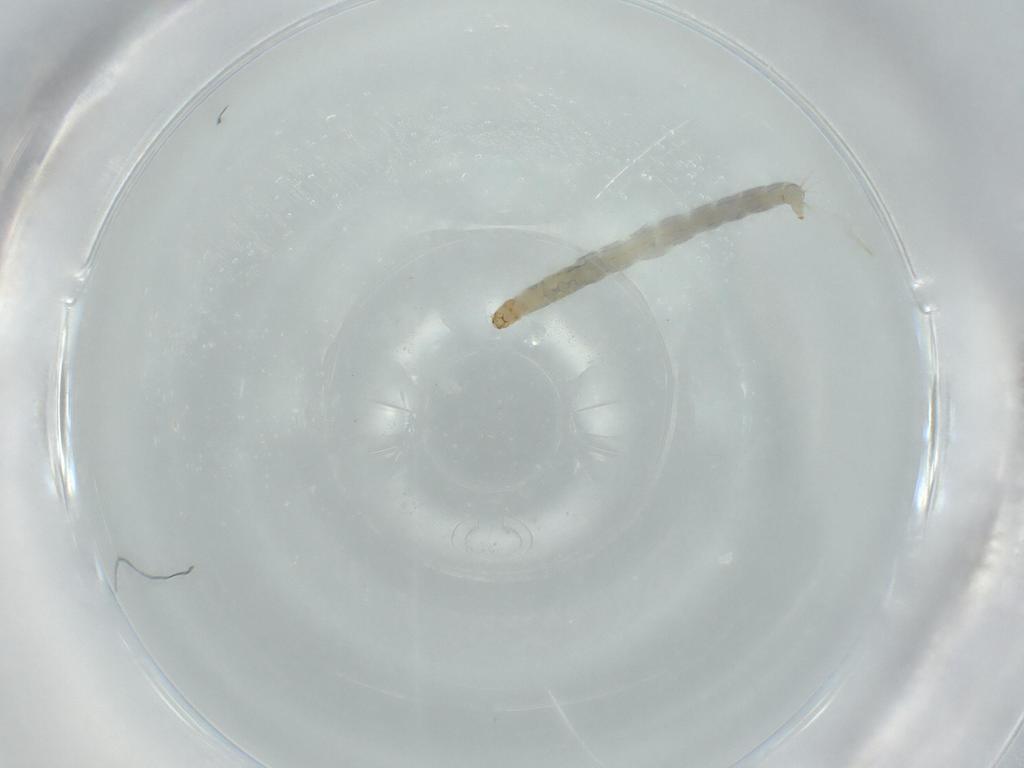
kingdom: Animalia
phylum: Arthropoda
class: Insecta
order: Diptera
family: Chironomidae
